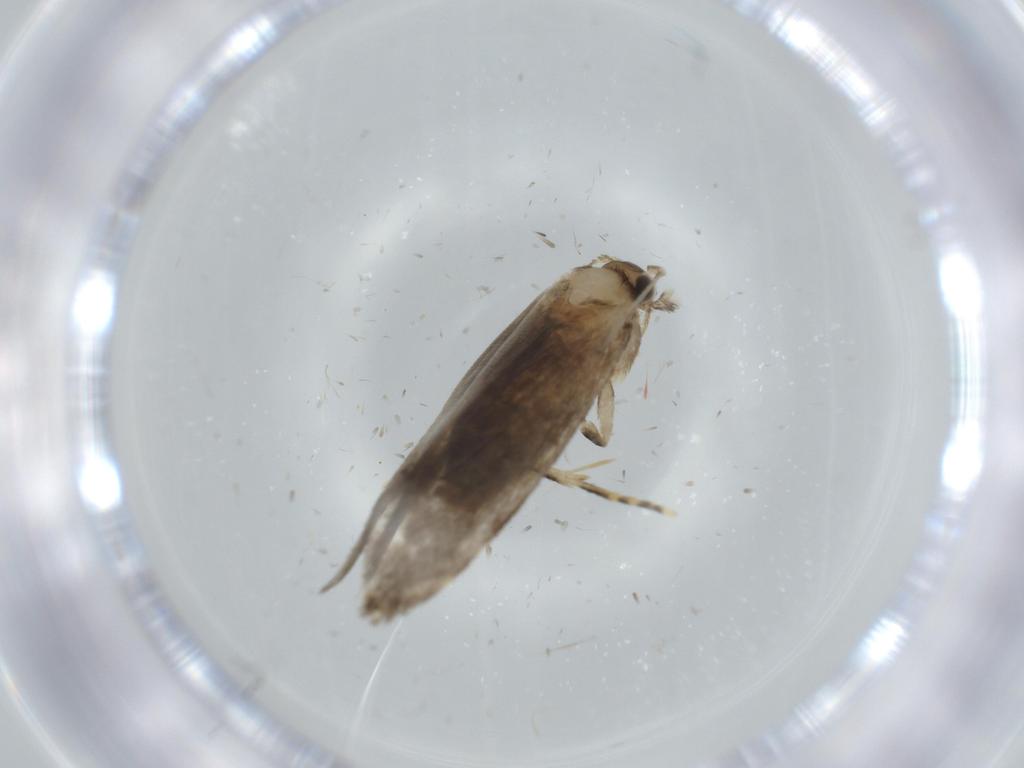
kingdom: Animalia
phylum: Arthropoda
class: Insecta
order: Lepidoptera
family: Tineidae
